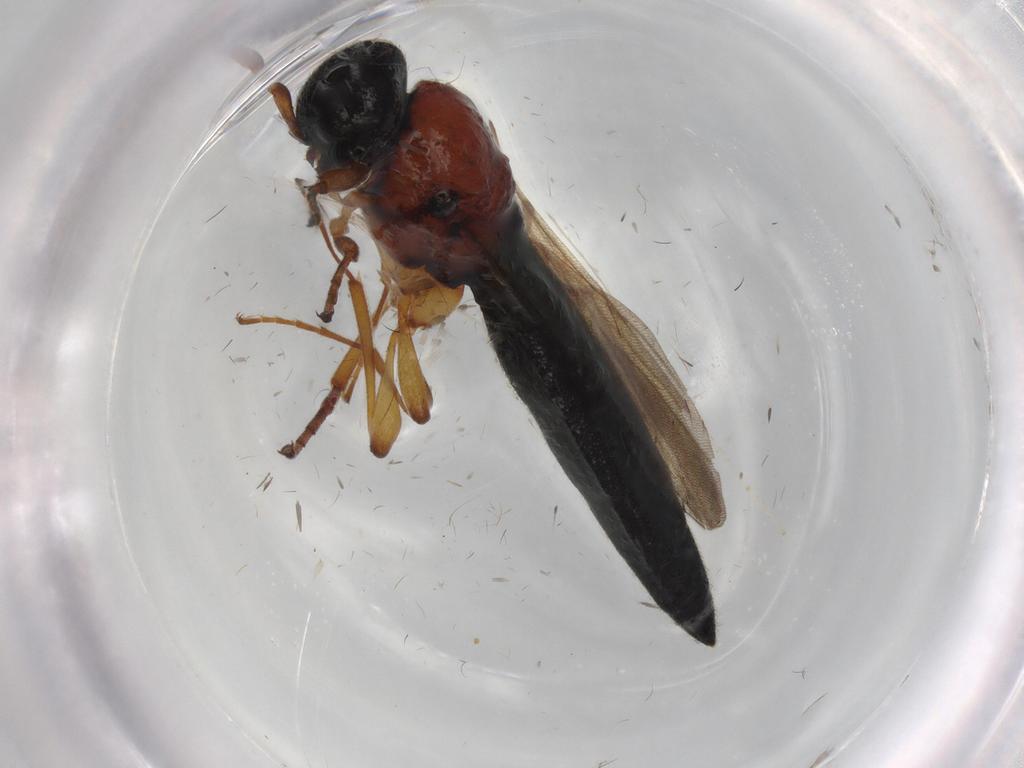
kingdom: Animalia
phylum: Arthropoda
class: Insecta
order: Hymenoptera
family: Scelionidae
